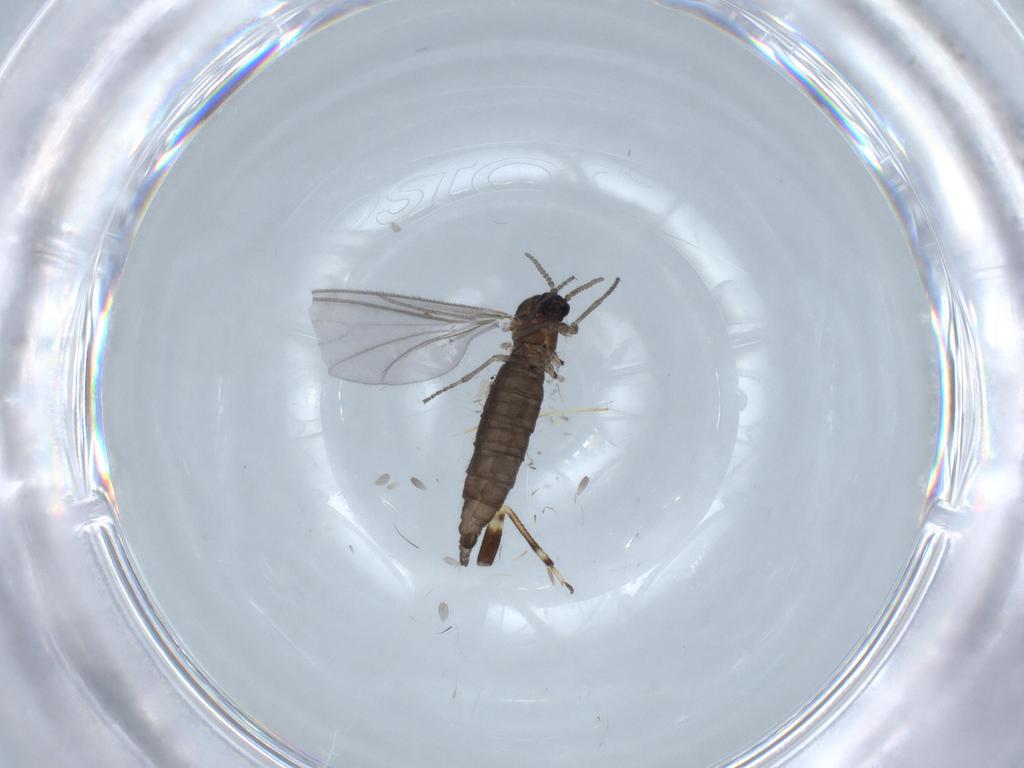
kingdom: Animalia
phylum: Arthropoda
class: Insecta
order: Diptera
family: Sciaridae
